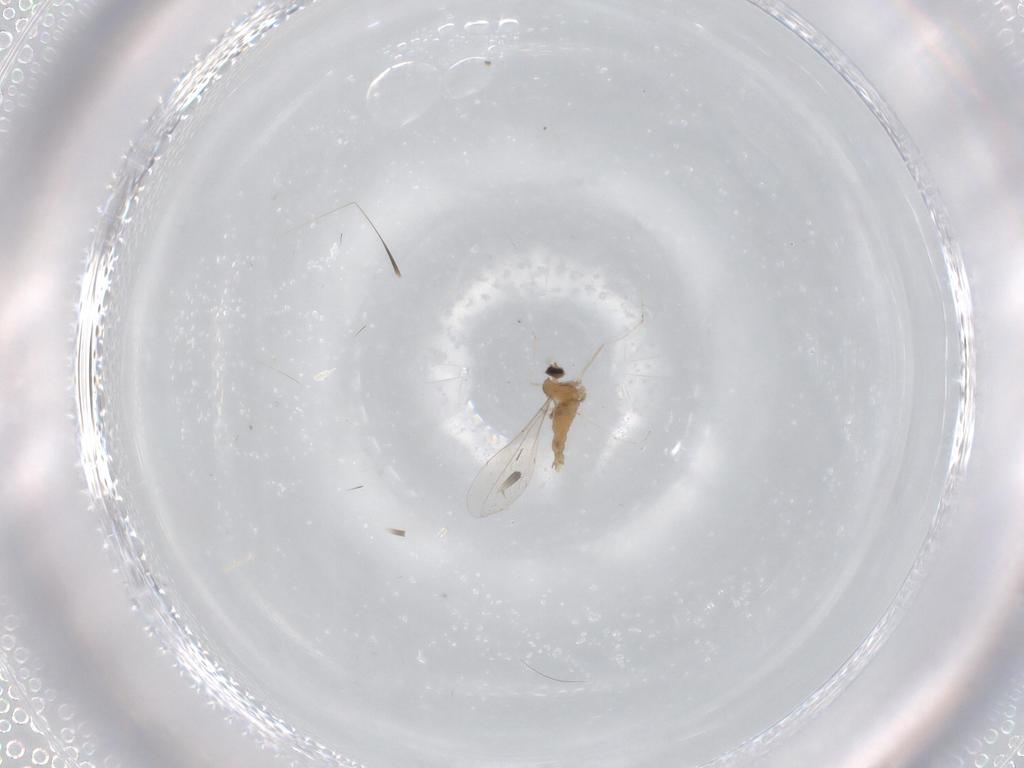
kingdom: Animalia
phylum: Arthropoda
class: Insecta
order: Diptera
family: Cecidomyiidae
